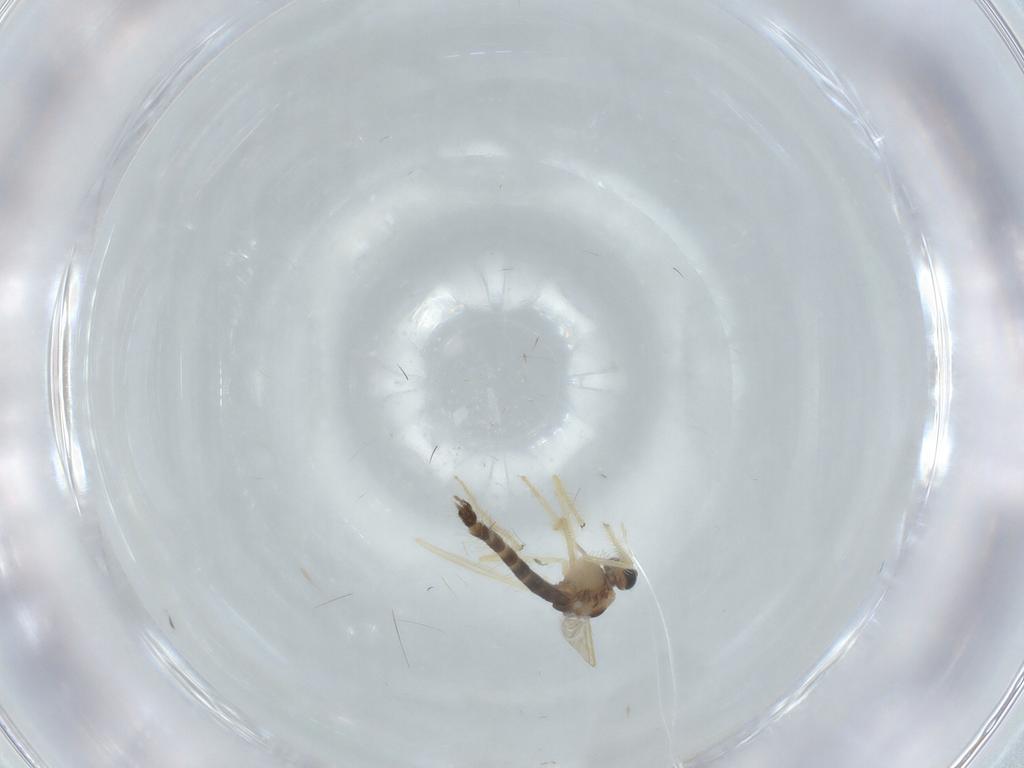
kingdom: Animalia
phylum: Arthropoda
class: Insecta
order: Diptera
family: Chironomidae
